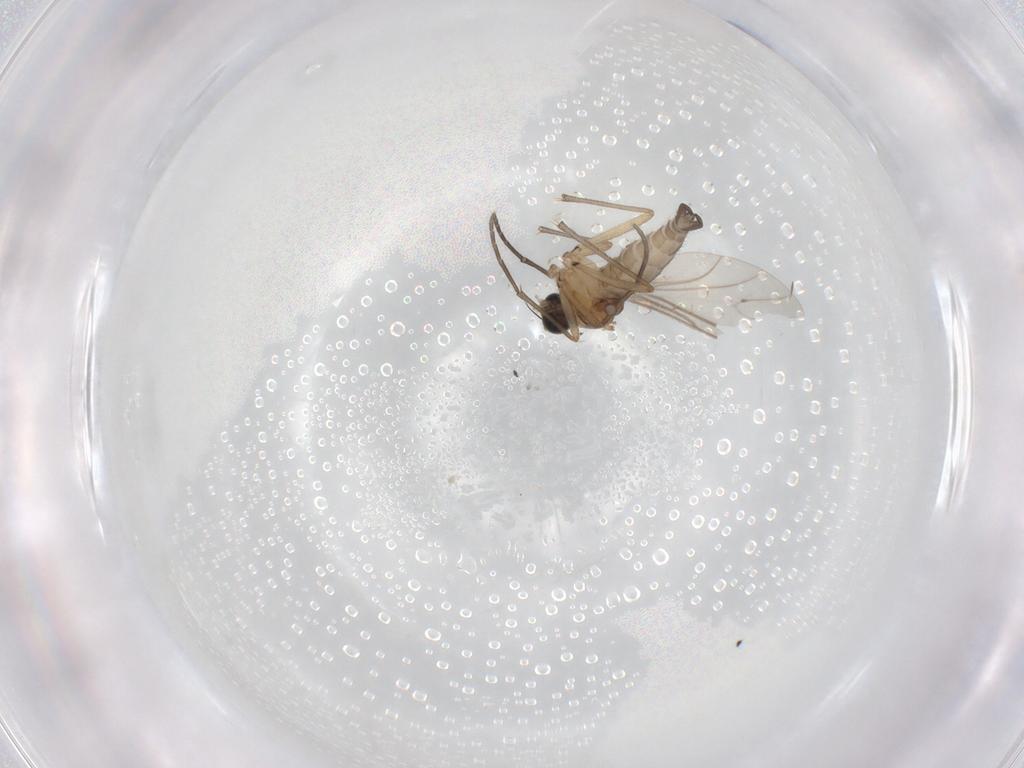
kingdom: Animalia
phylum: Arthropoda
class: Insecta
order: Diptera
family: Sciaridae
